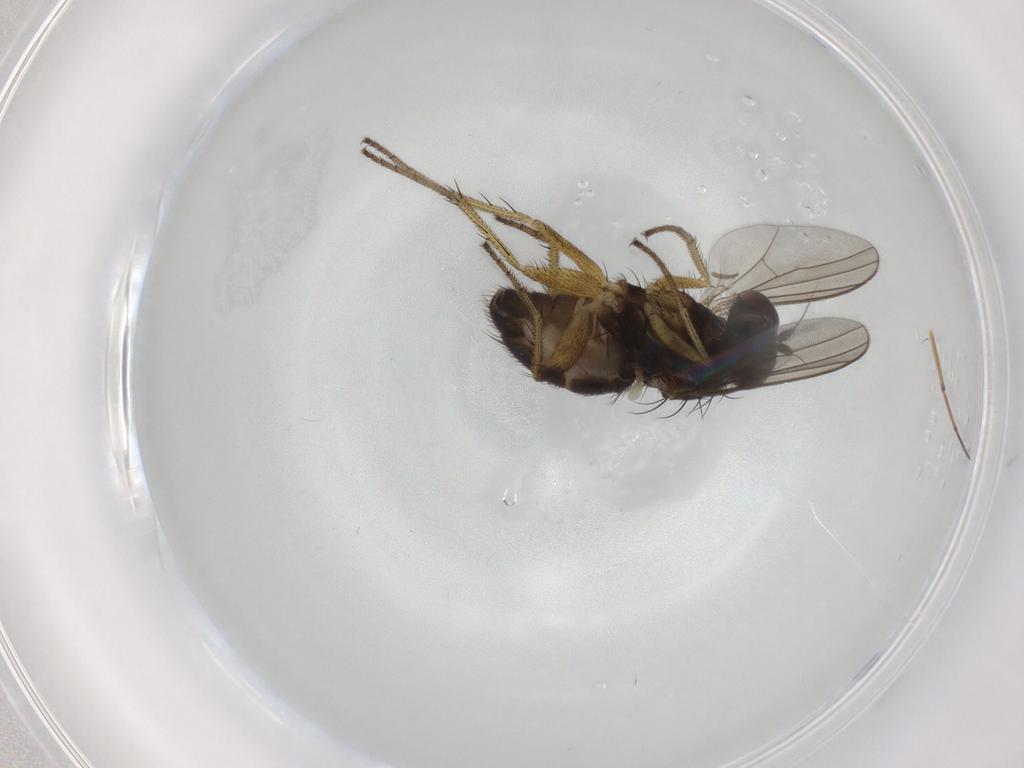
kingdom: Animalia
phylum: Arthropoda
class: Insecta
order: Diptera
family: Dolichopodidae
